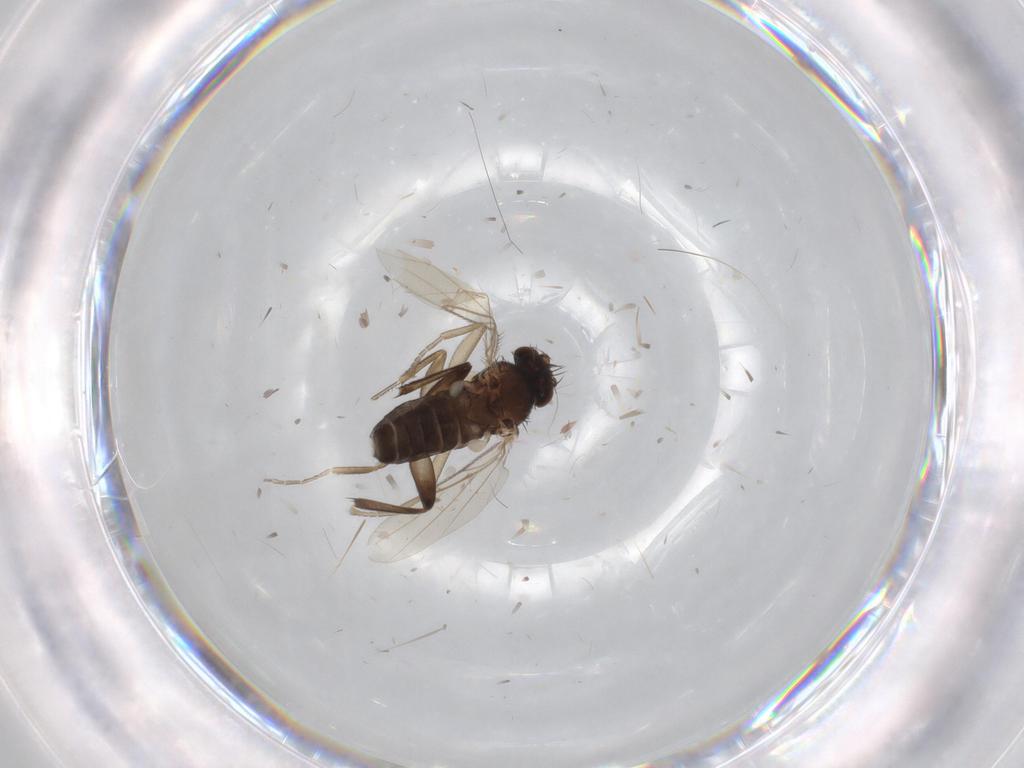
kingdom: Animalia
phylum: Arthropoda
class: Insecta
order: Diptera
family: Phoridae
